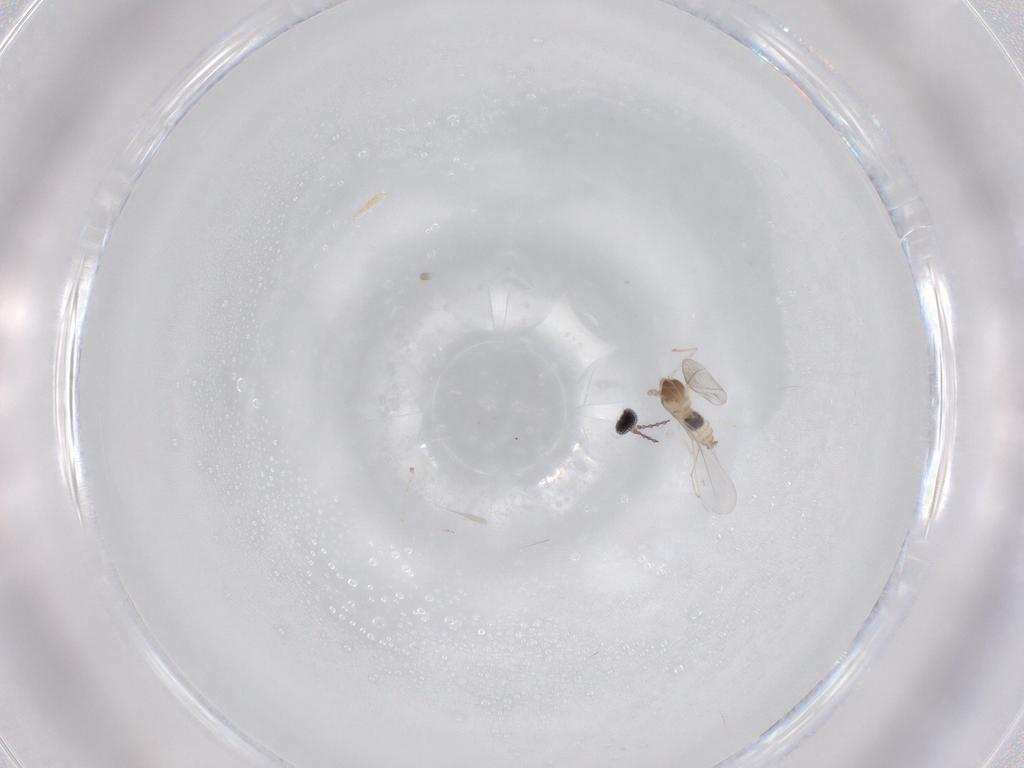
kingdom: Animalia
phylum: Arthropoda
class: Insecta
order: Diptera
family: Cecidomyiidae
